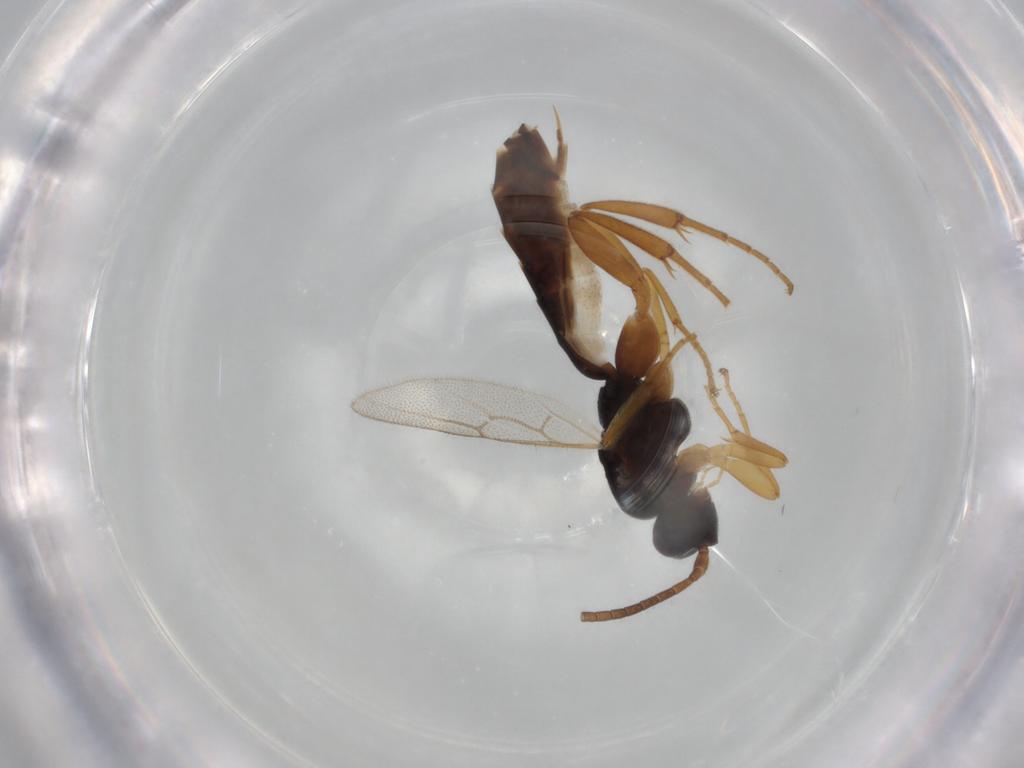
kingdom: Animalia
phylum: Arthropoda
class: Insecta
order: Hymenoptera
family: Ichneumonidae
